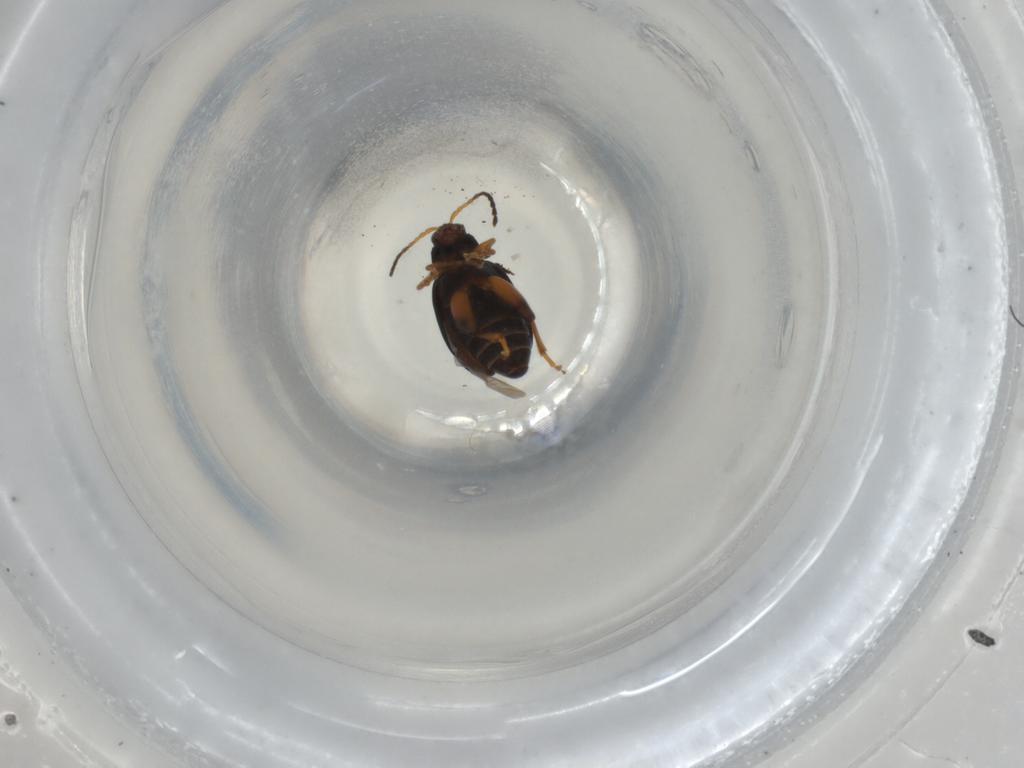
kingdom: Animalia
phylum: Arthropoda
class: Insecta
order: Coleoptera
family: Chrysomelidae
